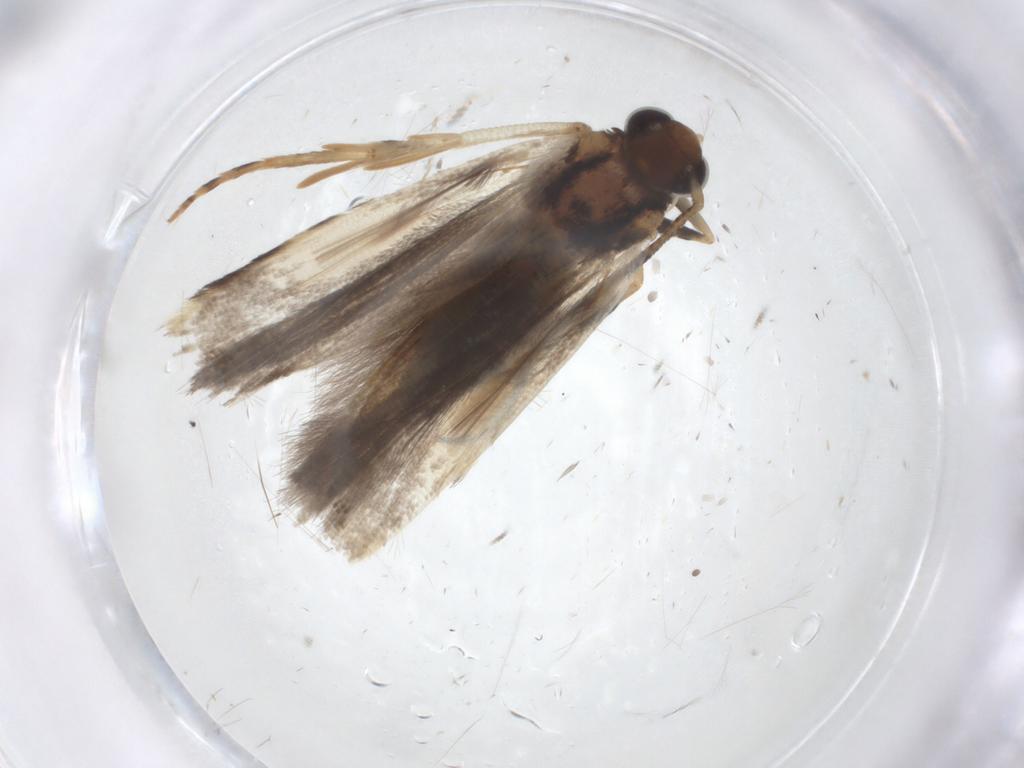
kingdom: Animalia
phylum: Arthropoda
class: Insecta
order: Lepidoptera
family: Gelechiidae
